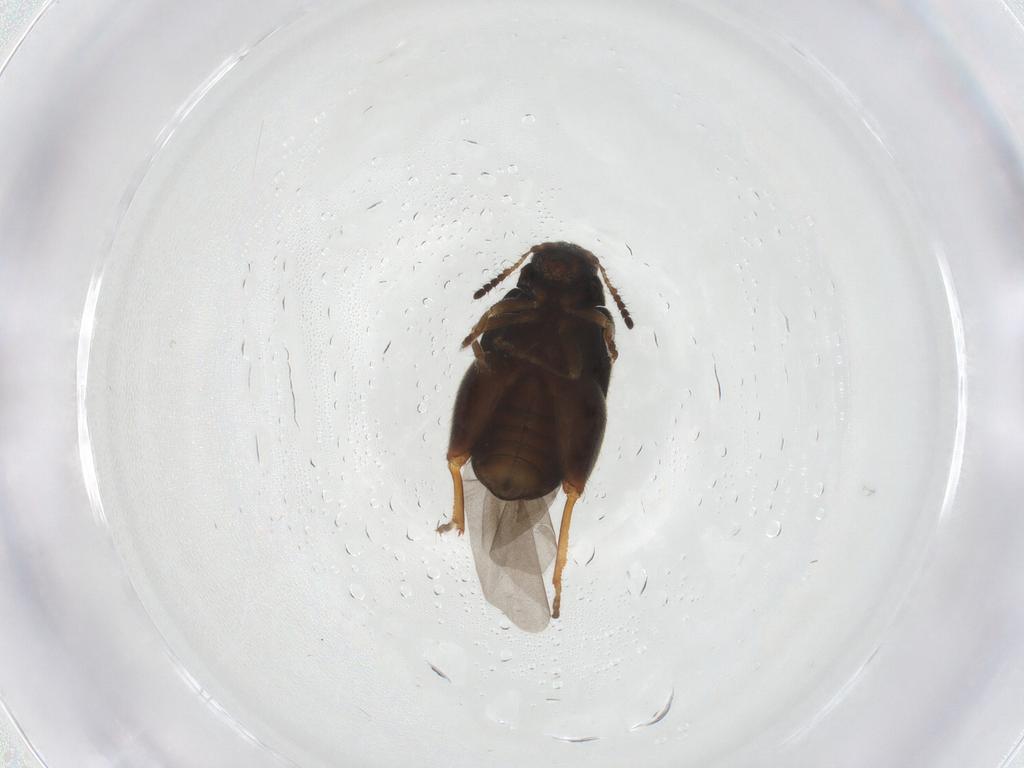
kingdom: Animalia
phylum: Arthropoda
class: Insecta
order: Coleoptera
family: Chrysomelidae
